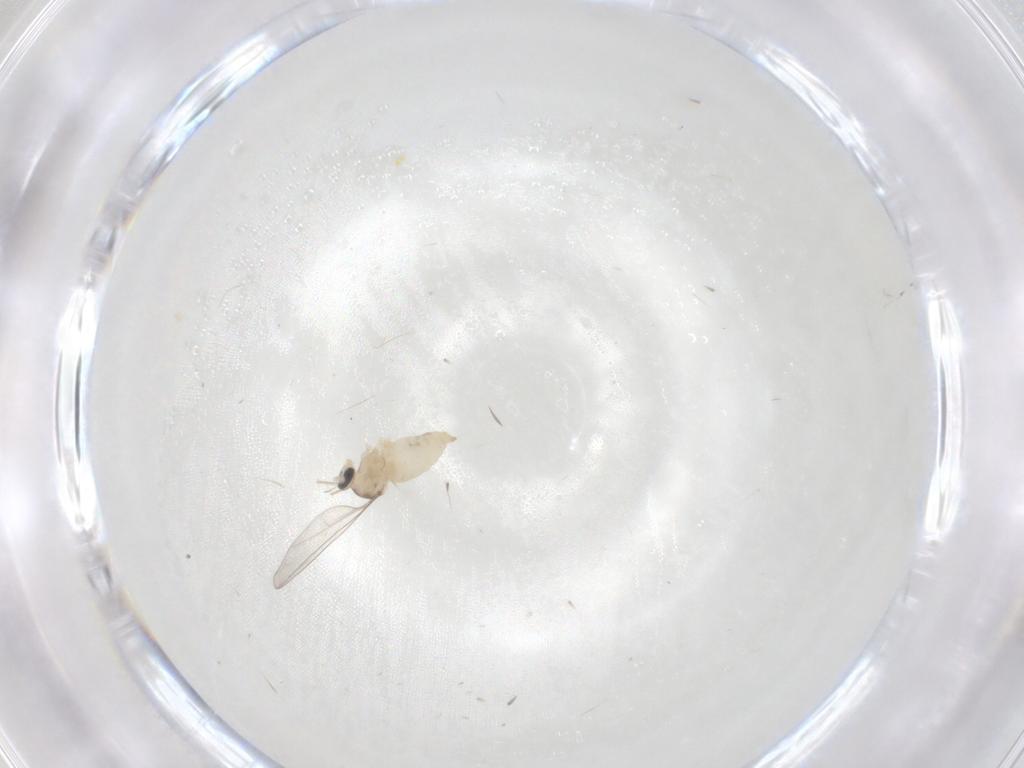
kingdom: Animalia
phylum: Arthropoda
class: Insecta
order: Diptera
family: Cecidomyiidae
